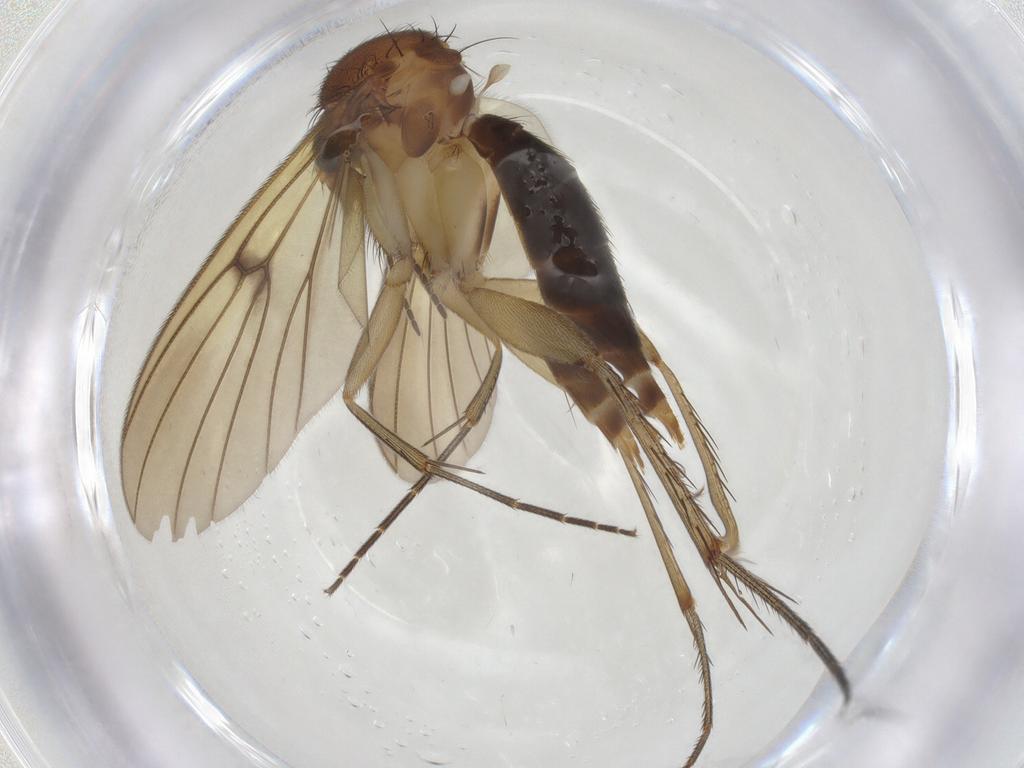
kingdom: Animalia
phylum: Arthropoda
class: Insecta
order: Diptera
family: Mycetophilidae
